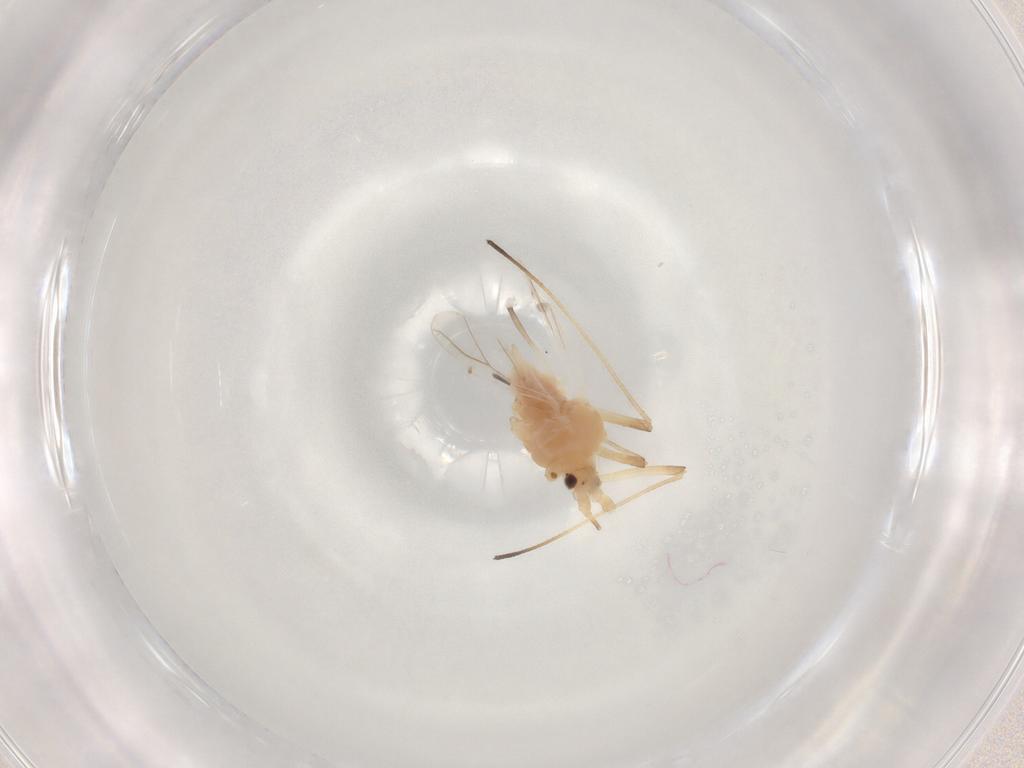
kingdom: Animalia
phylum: Arthropoda
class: Insecta
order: Hemiptera
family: Aphididae
